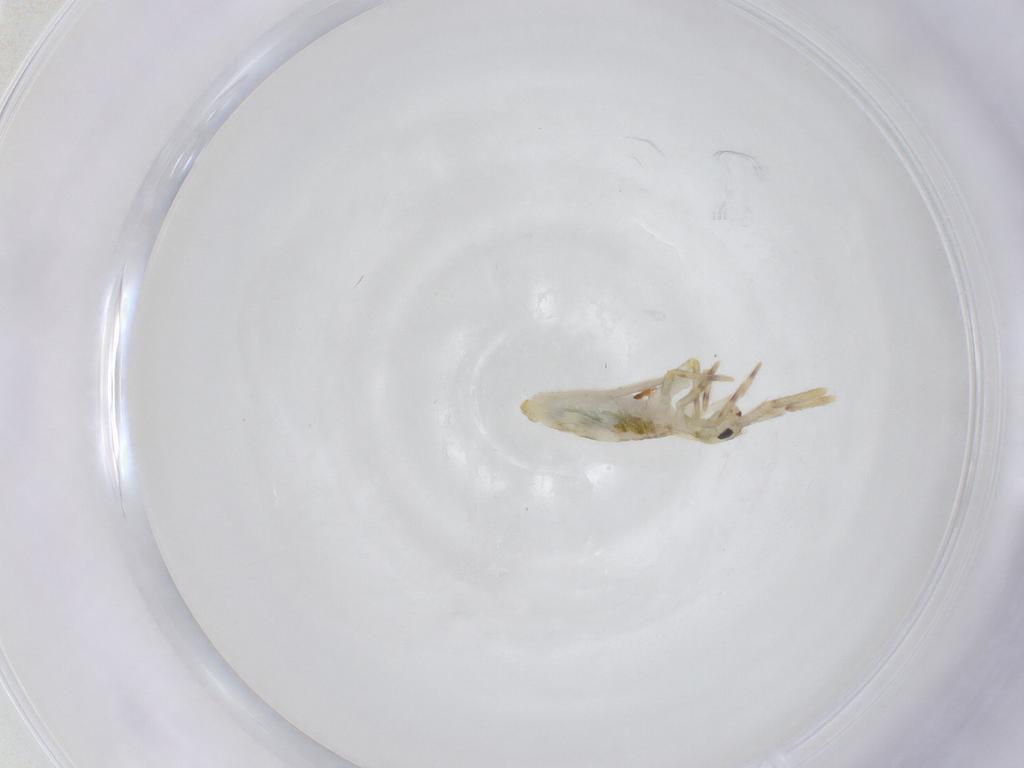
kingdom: Animalia
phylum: Arthropoda
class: Collembola
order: Entomobryomorpha
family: Entomobryidae
